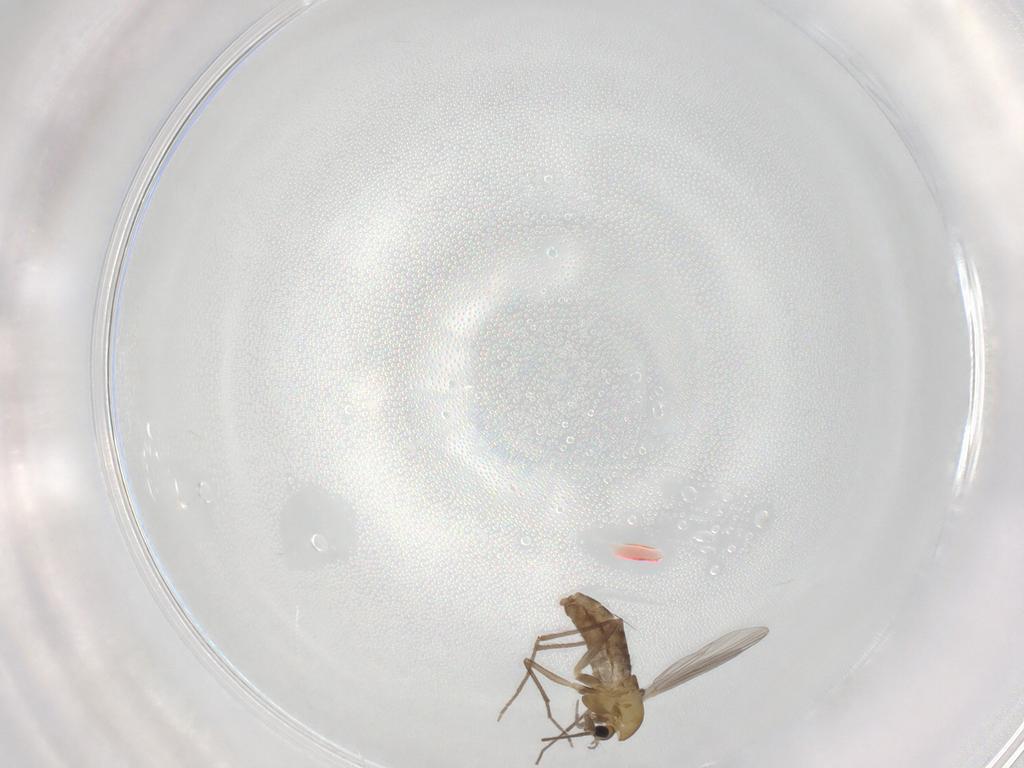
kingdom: Animalia
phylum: Arthropoda
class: Insecta
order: Diptera
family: Chironomidae
